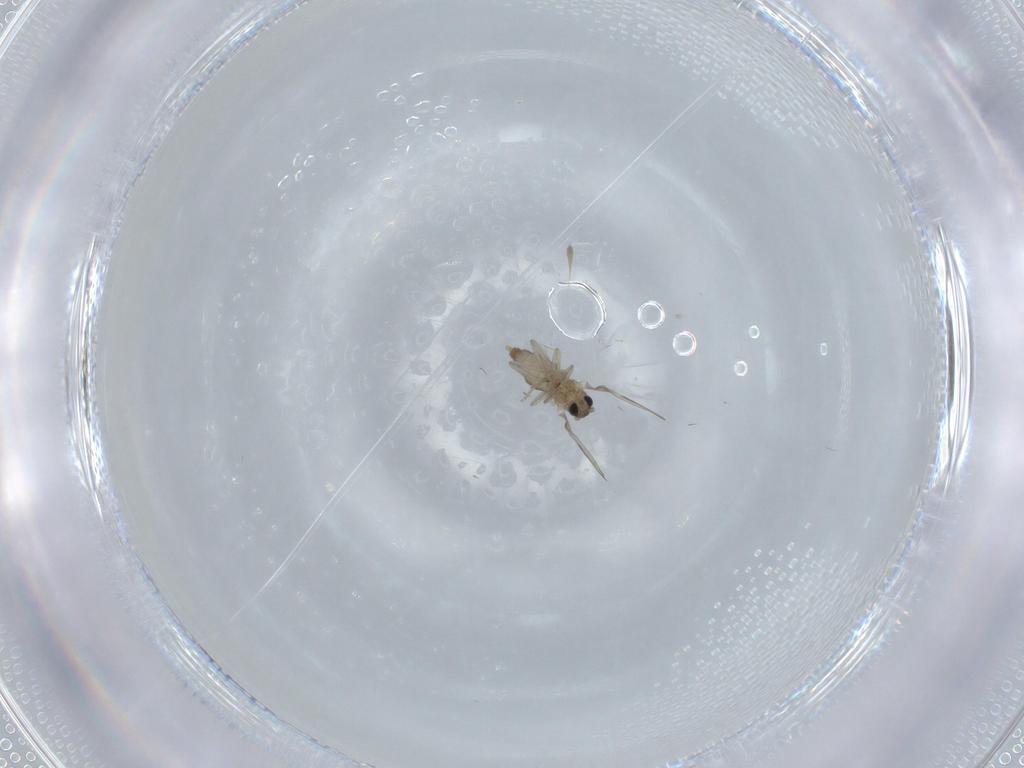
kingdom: Animalia
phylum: Arthropoda
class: Insecta
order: Diptera
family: Cecidomyiidae
